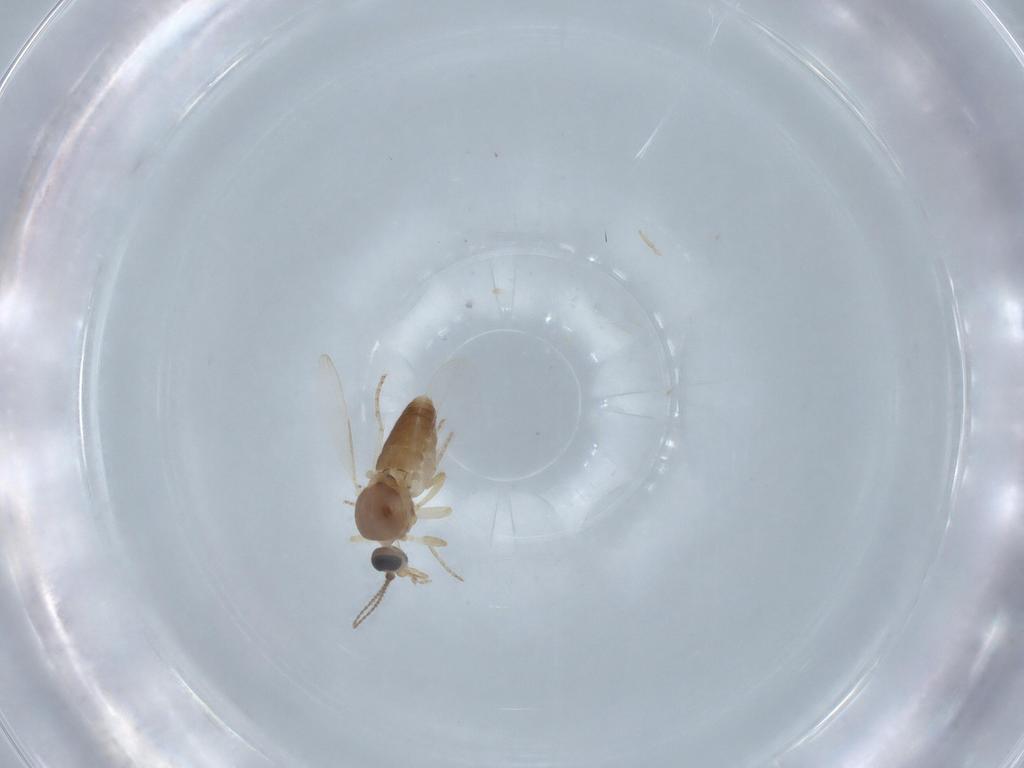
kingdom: Animalia
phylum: Arthropoda
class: Insecta
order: Diptera
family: Ceratopogonidae
